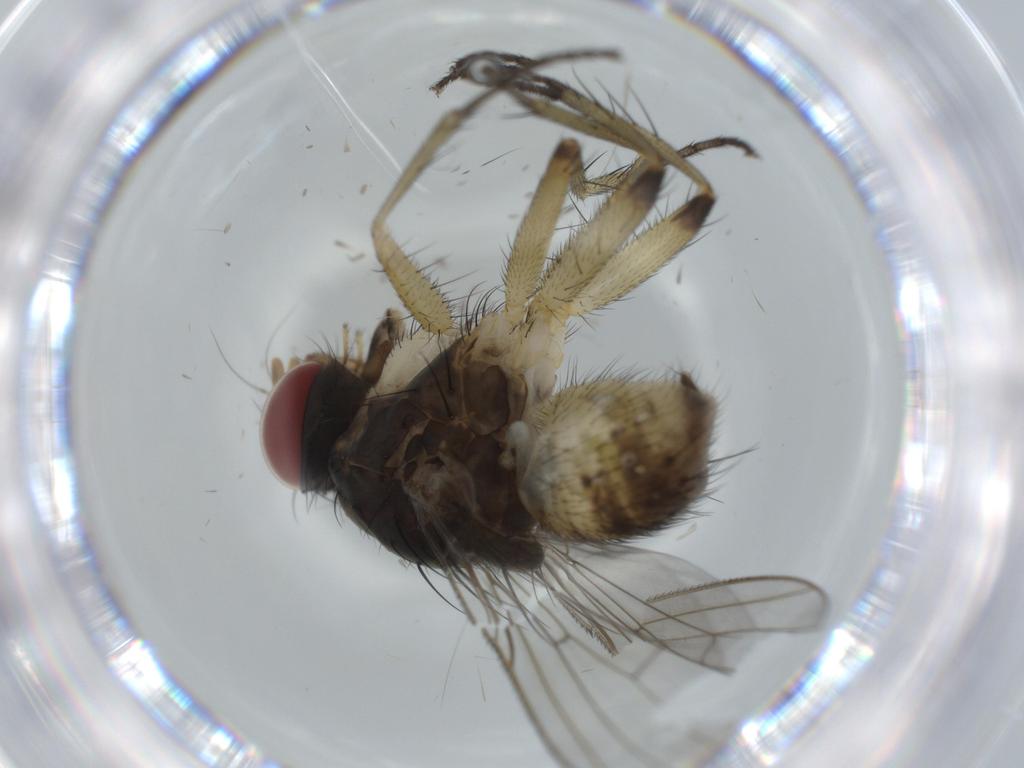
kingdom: Animalia
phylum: Arthropoda
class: Insecta
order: Diptera
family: Sciaridae
